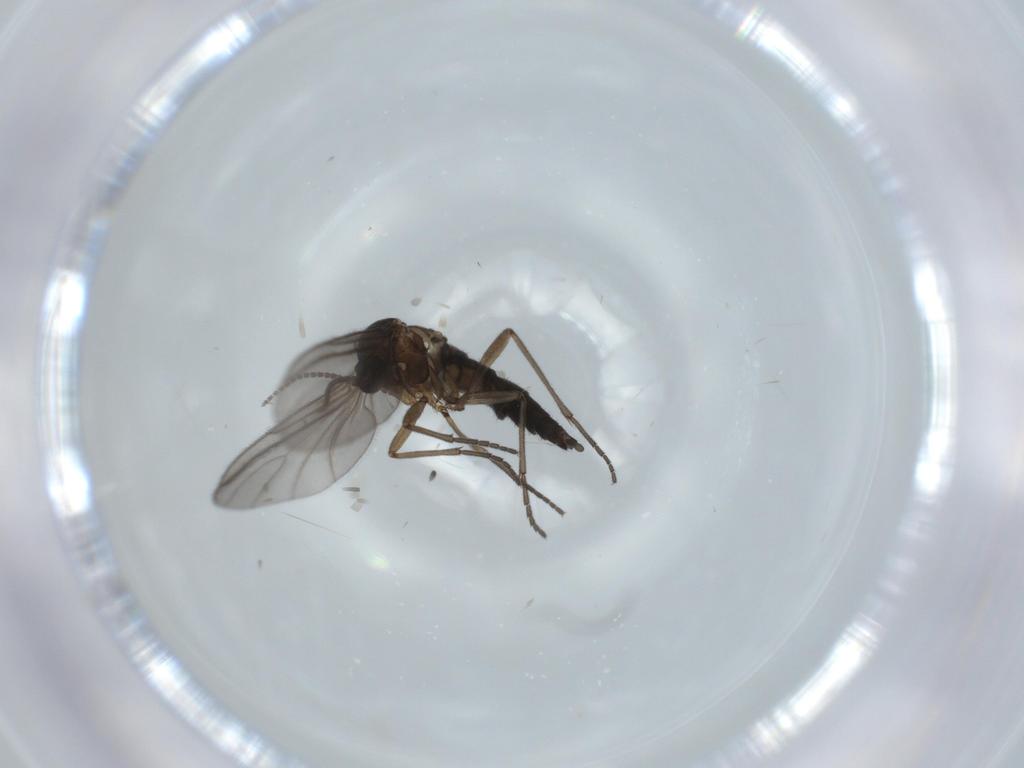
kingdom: Animalia
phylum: Arthropoda
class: Insecta
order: Diptera
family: Sciaridae
